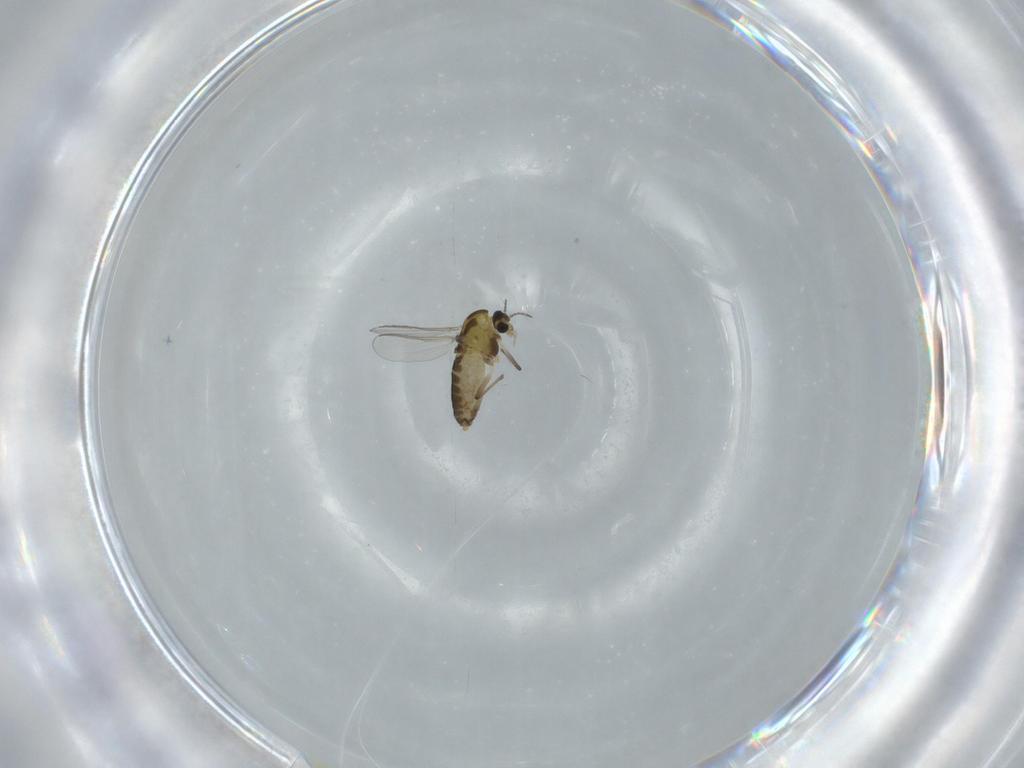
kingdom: Animalia
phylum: Arthropoda
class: Insecta
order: Diptera
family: Chironomidae
